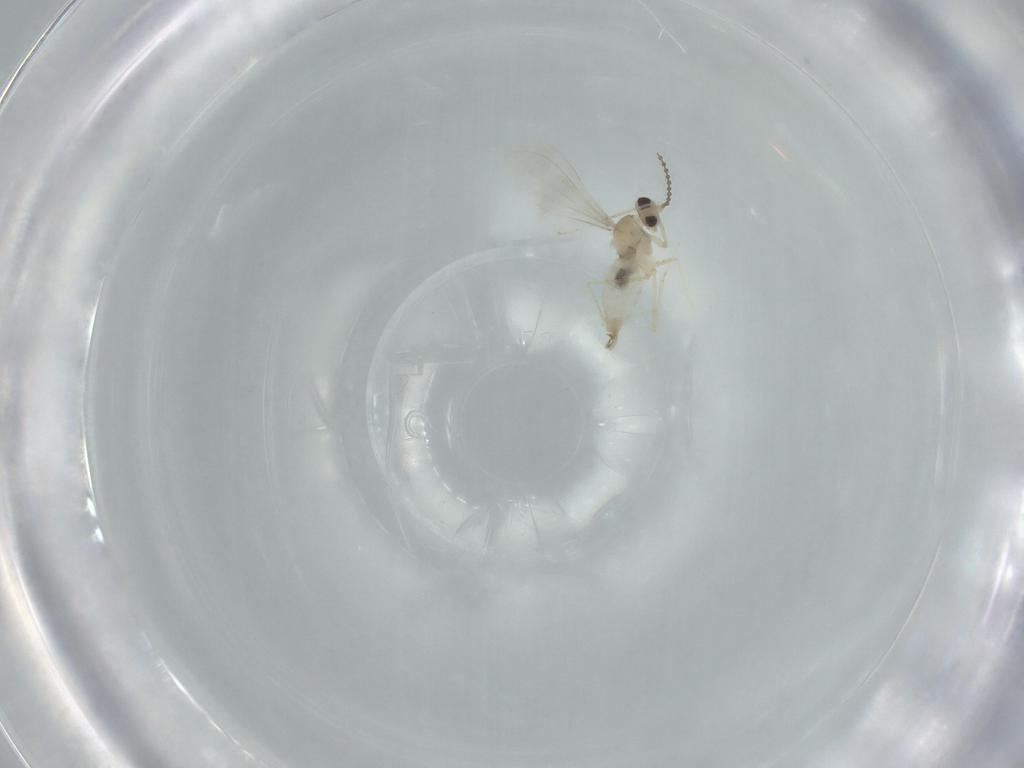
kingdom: Animalia
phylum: Arthropoda
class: Insecta
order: Diptera
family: Cecidomyiidae
